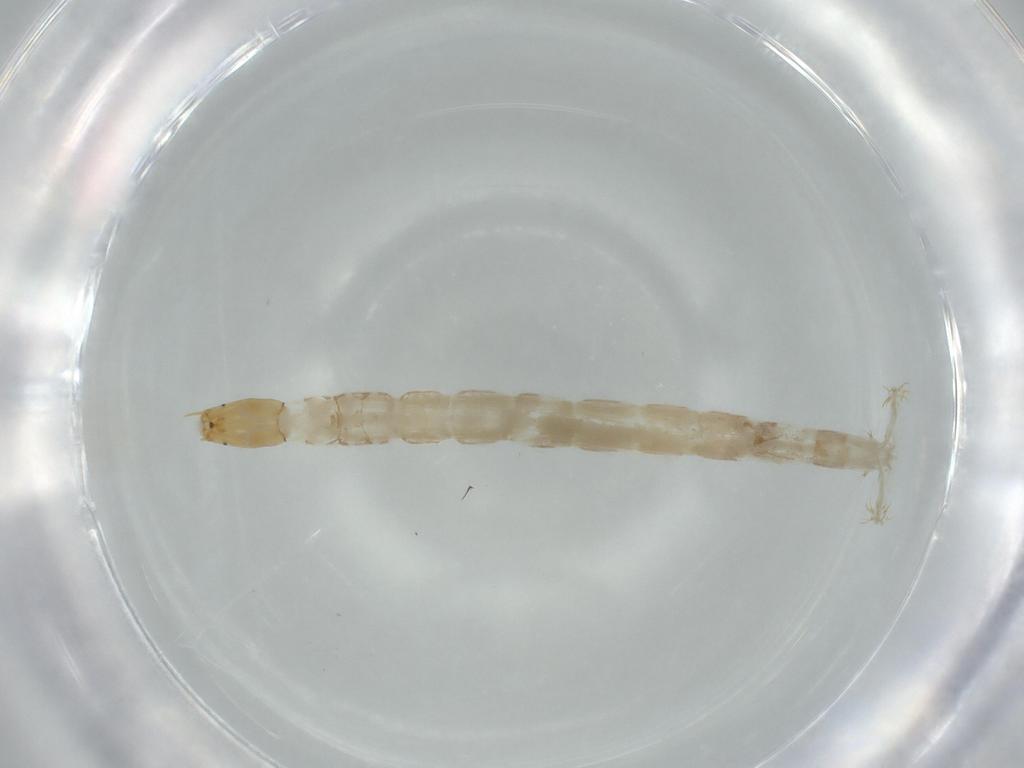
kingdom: Animalia
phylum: Arthropoda
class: Insecta
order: Diptera
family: Chironomidae
